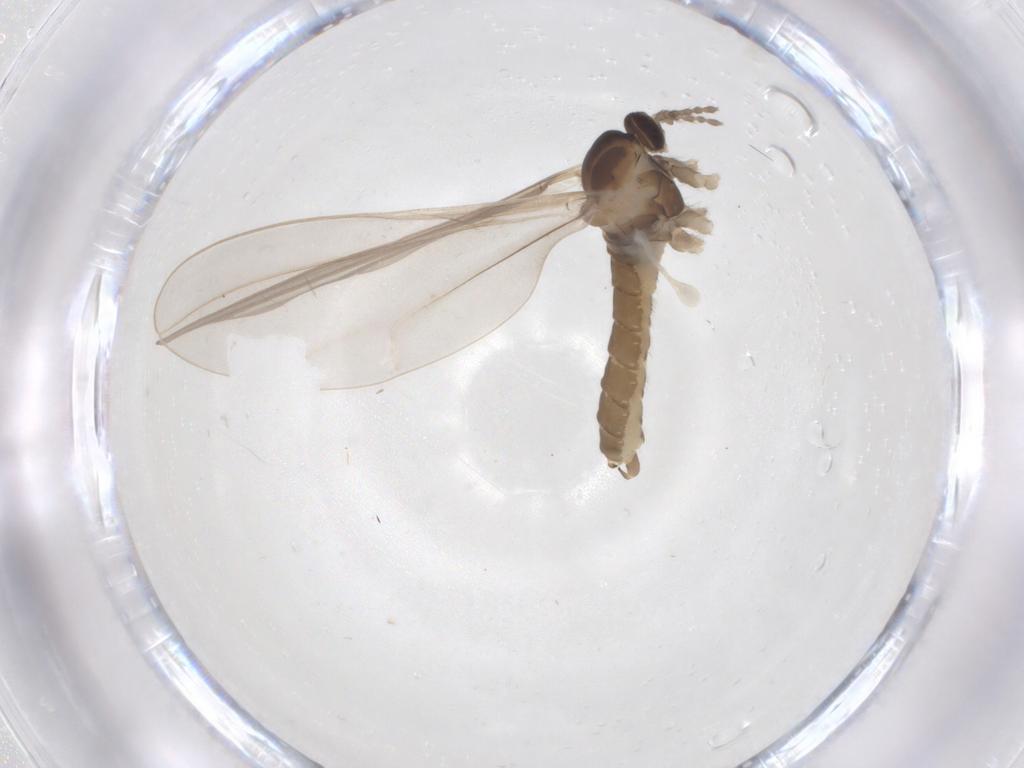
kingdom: Animalia
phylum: Arthropoda
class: Insecta
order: Diptera
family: Cecidomyiidae
